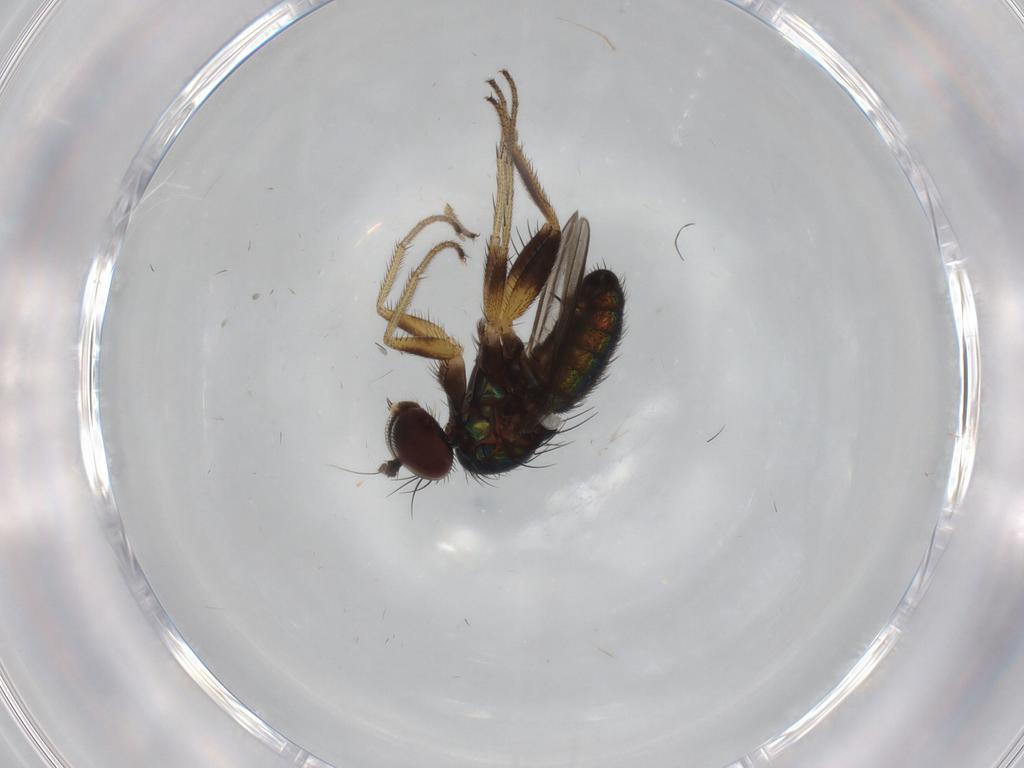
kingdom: Animalia
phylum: Arthropoda
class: Insecta
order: Diptera
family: Dolichopodidae
